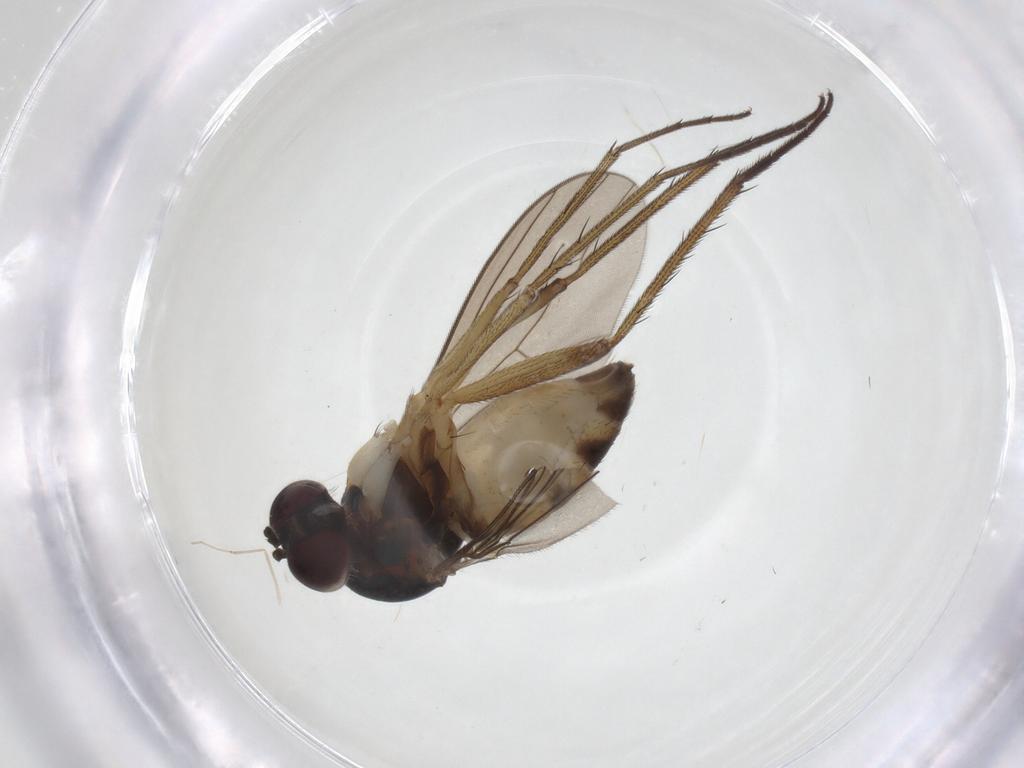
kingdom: Animalia
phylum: Arthropoda
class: Insecta
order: Diptera
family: Dolichopodidae
